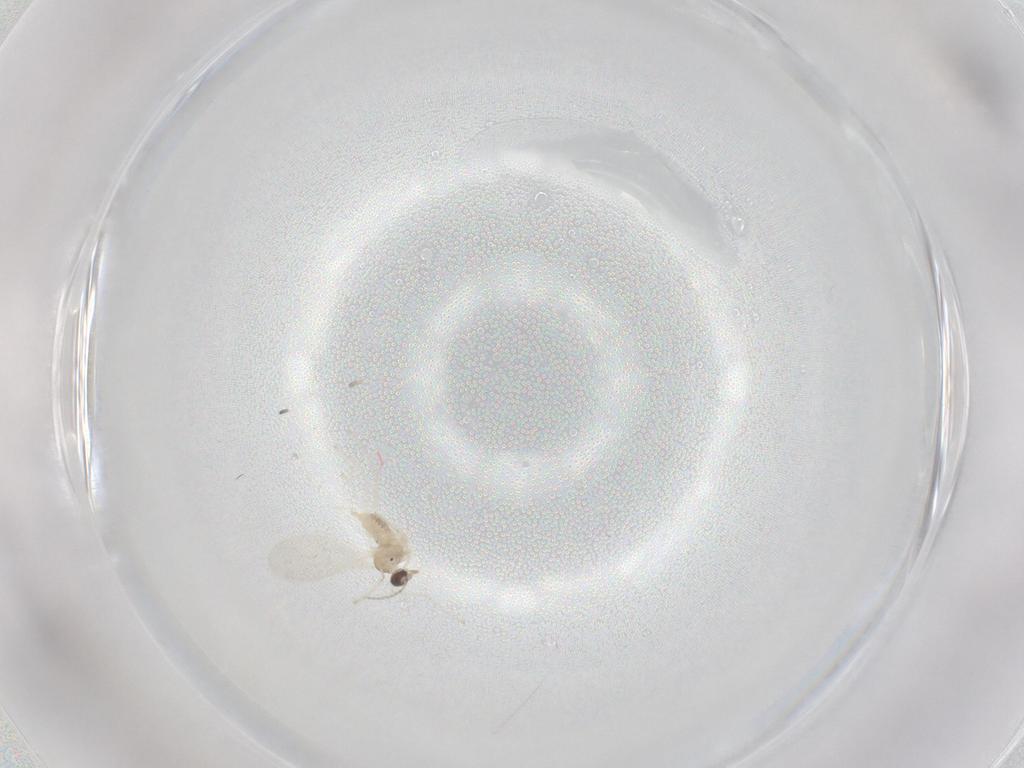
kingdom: Animalia
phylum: Arthropoda
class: Insecta
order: Diptera
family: Cecidomyiidae
